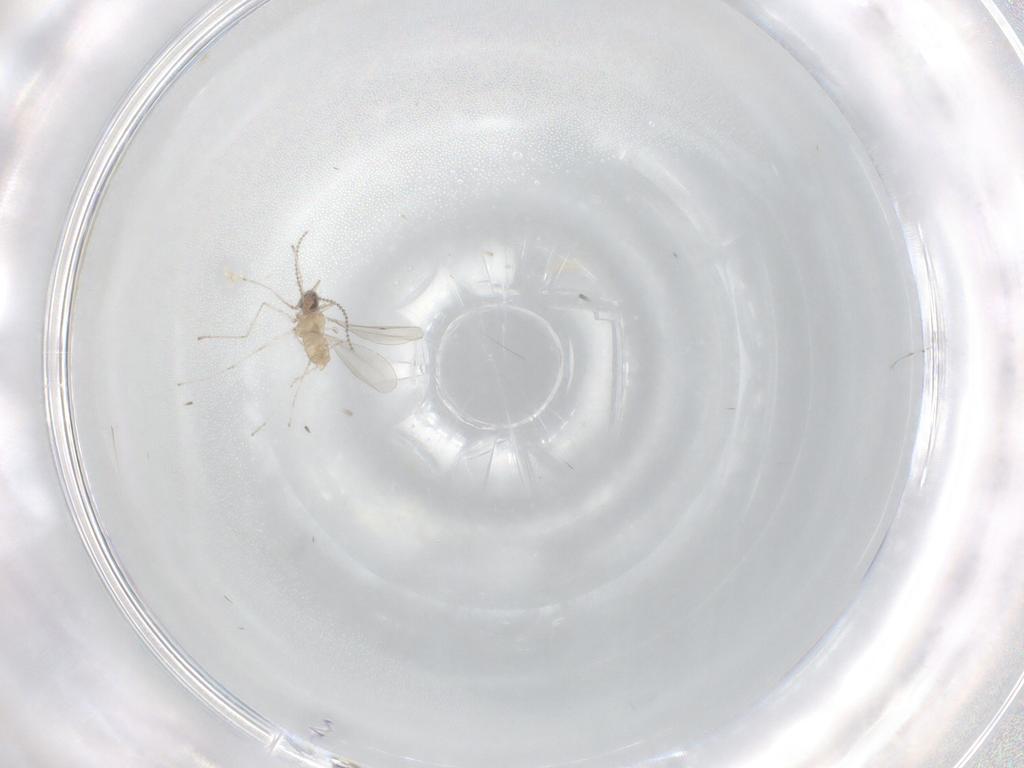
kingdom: Animalia
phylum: Arthropoda
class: Insecta
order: Diptera
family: Cecidomyiidae
